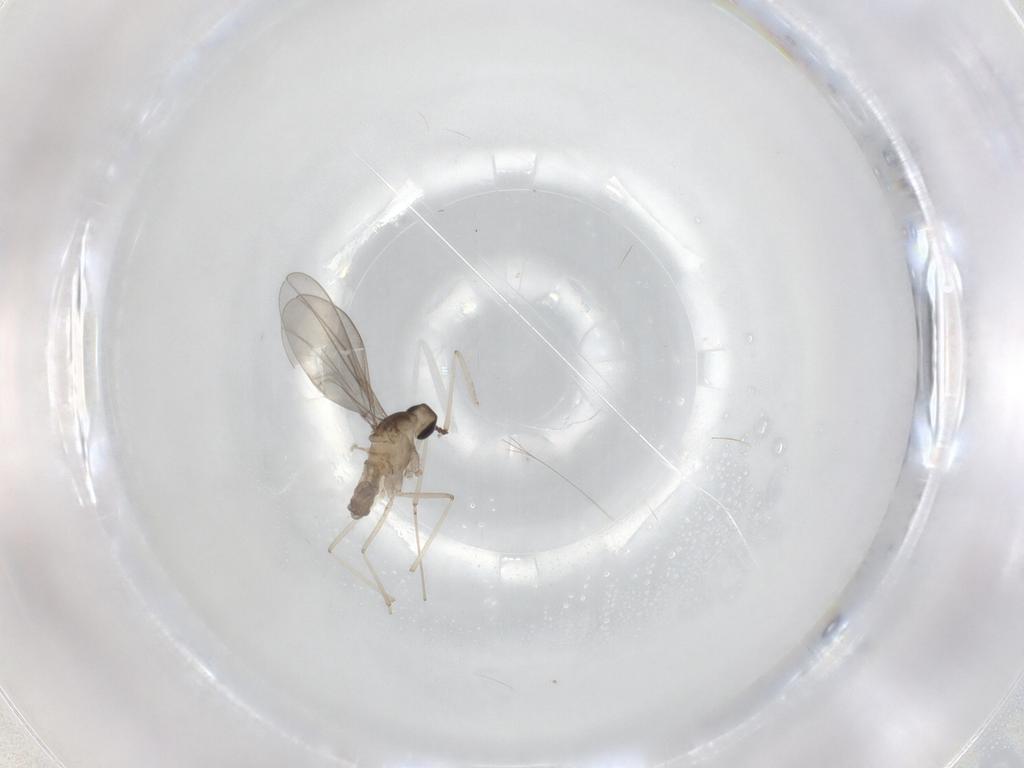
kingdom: Animalia
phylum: Arthropoda
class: Insecta
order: Diptera
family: Cecidomyiidae
